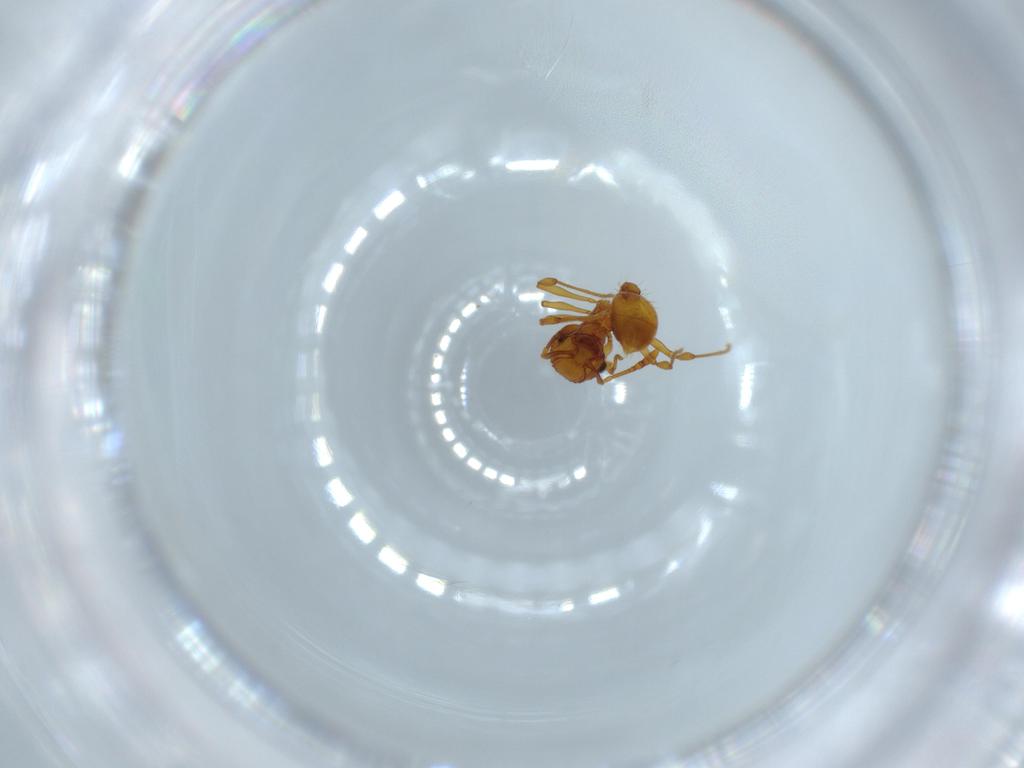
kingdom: Animalia
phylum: Arthropoda
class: Insecta
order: Hymenoptera
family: Formicidae
